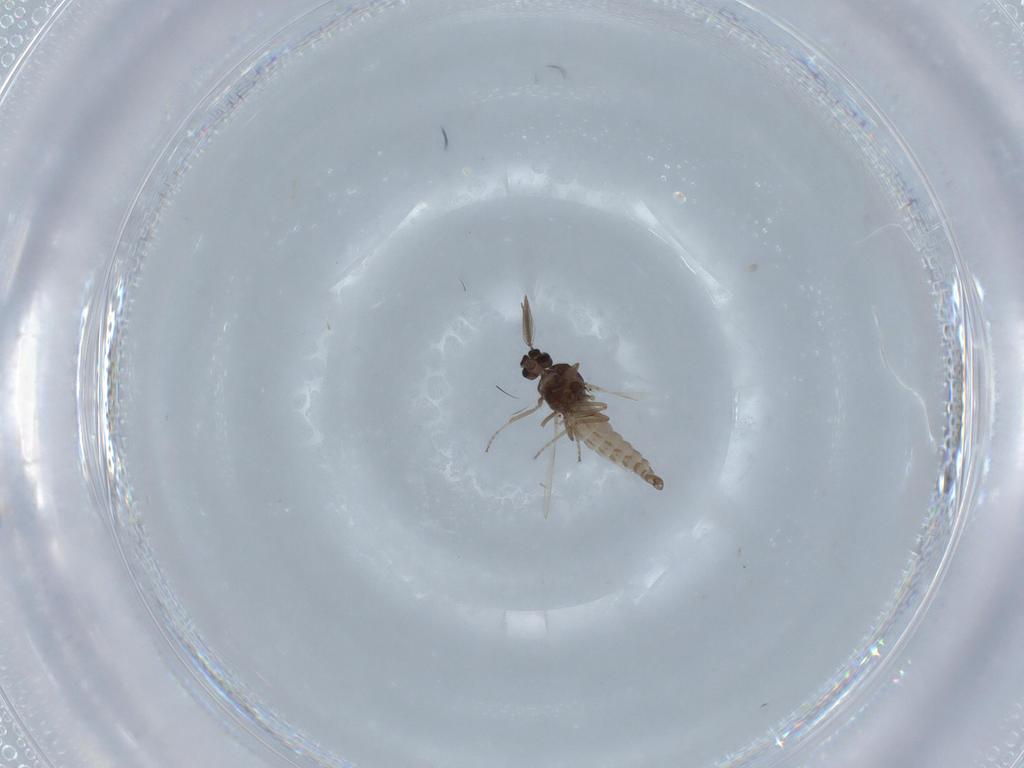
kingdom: Animalia
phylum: Arthropoda
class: Insecta
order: Diptera
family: Ceratopogonidae
